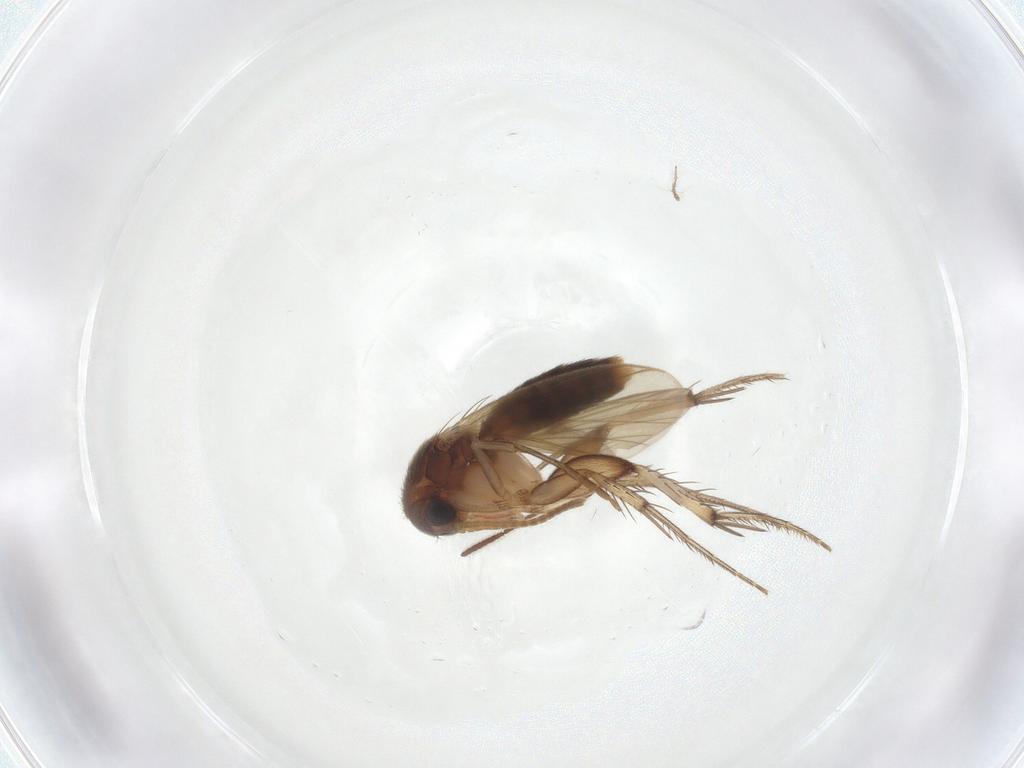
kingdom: Animalia
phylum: Arthropoda
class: Insecta
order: Diptera
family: Mycetophilidae
